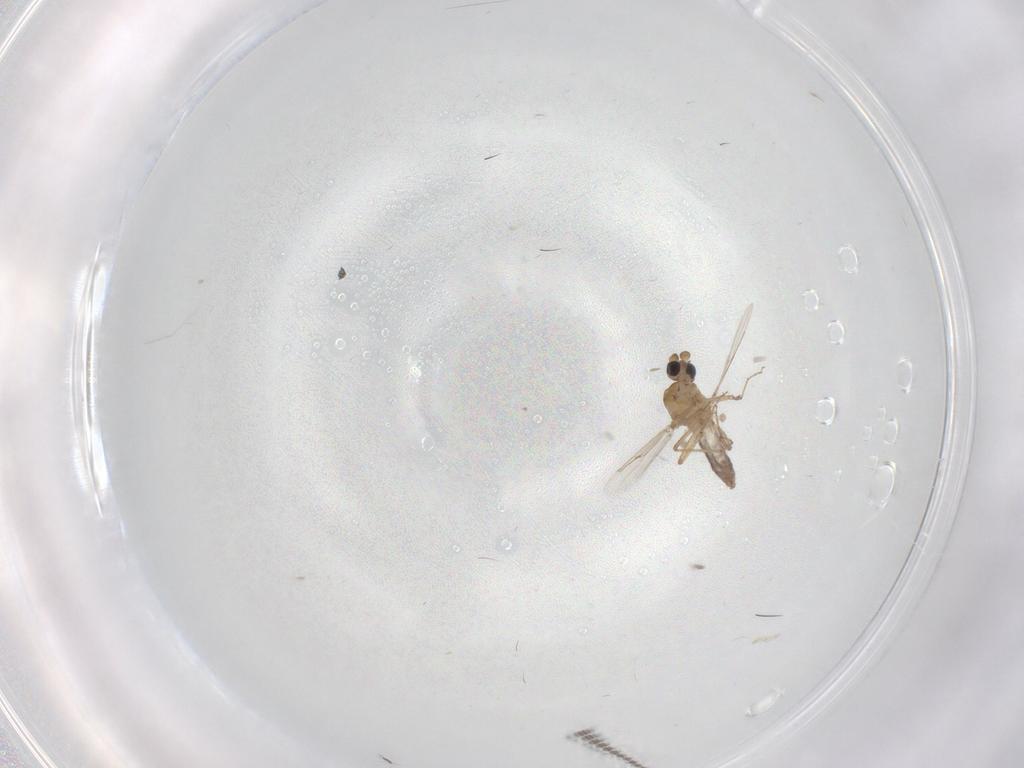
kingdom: Animalia
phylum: Arthropoda
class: Insecta
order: Diptera
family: Sciaridae
